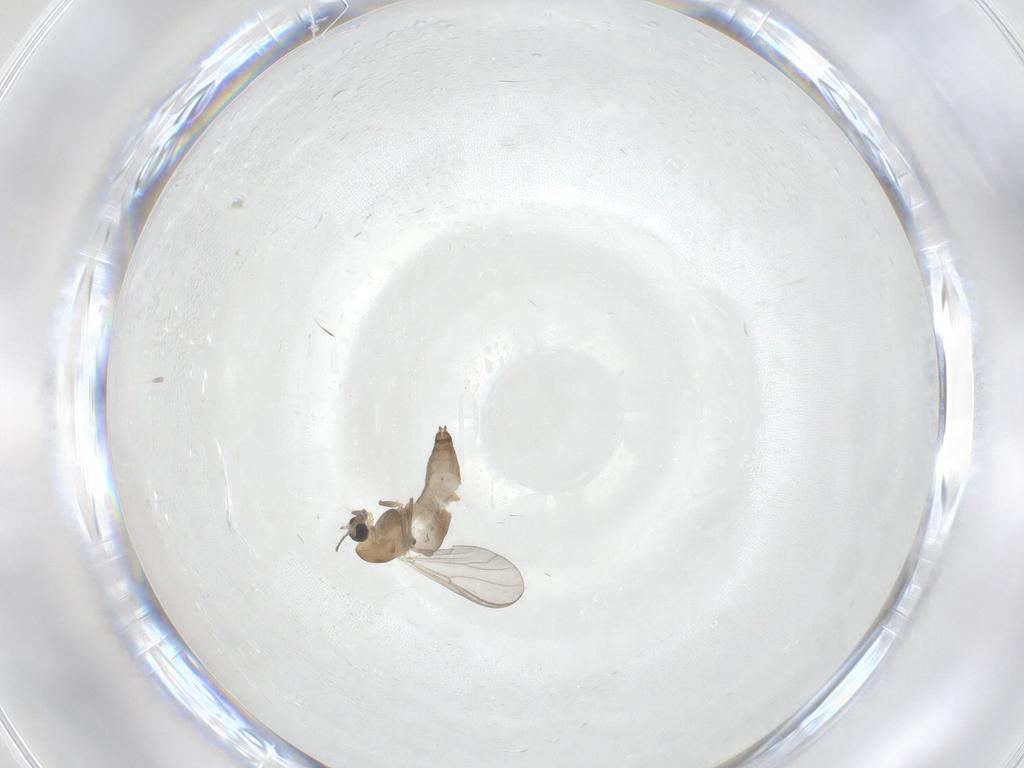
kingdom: Animalia
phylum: Arthropoda
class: Insecta
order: Diptera
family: Chironomidae
